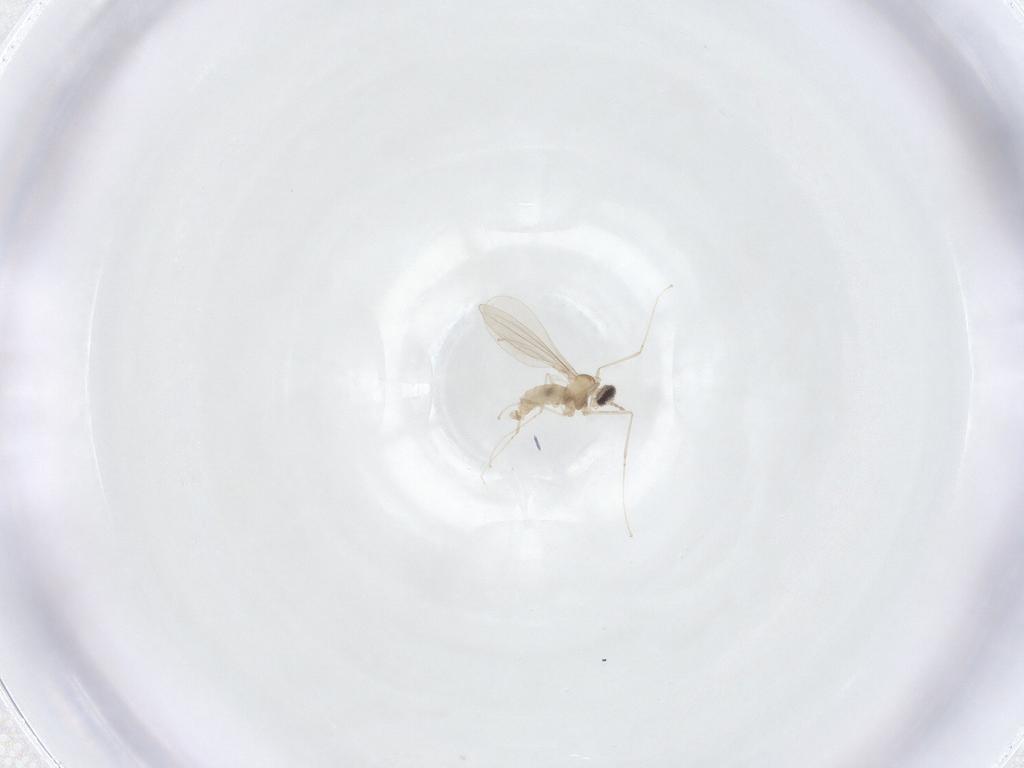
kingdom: Animalia
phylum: Arthropoda
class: Insecta
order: Diptera
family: Cecidomyiidae
